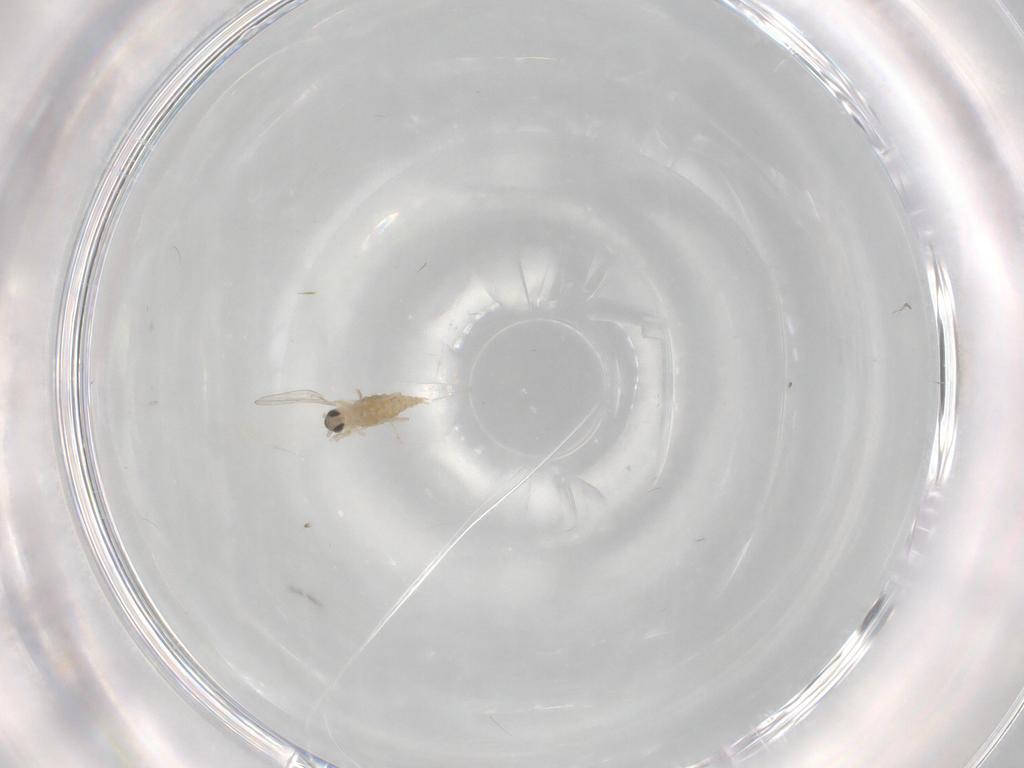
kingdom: Animalia
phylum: Arthropoda
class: Insecta
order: Diptera
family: Cecidomyiidae
